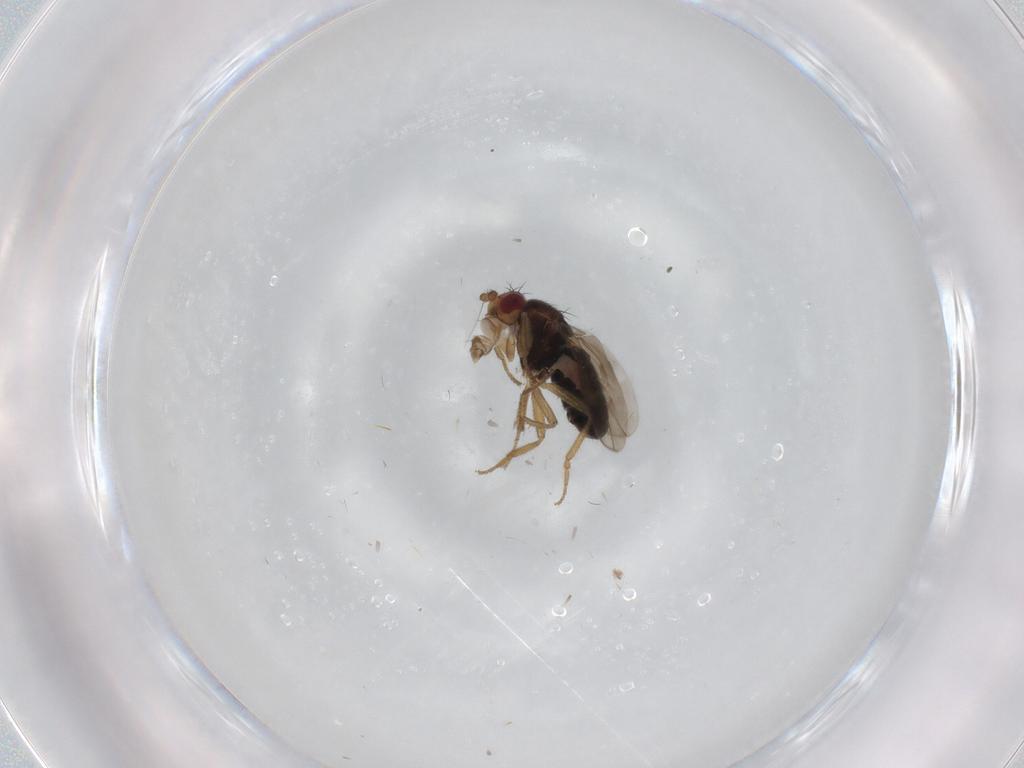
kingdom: Animalia
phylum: Arthropoda
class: Insecta
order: Diptera
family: Sphaeroceridae
